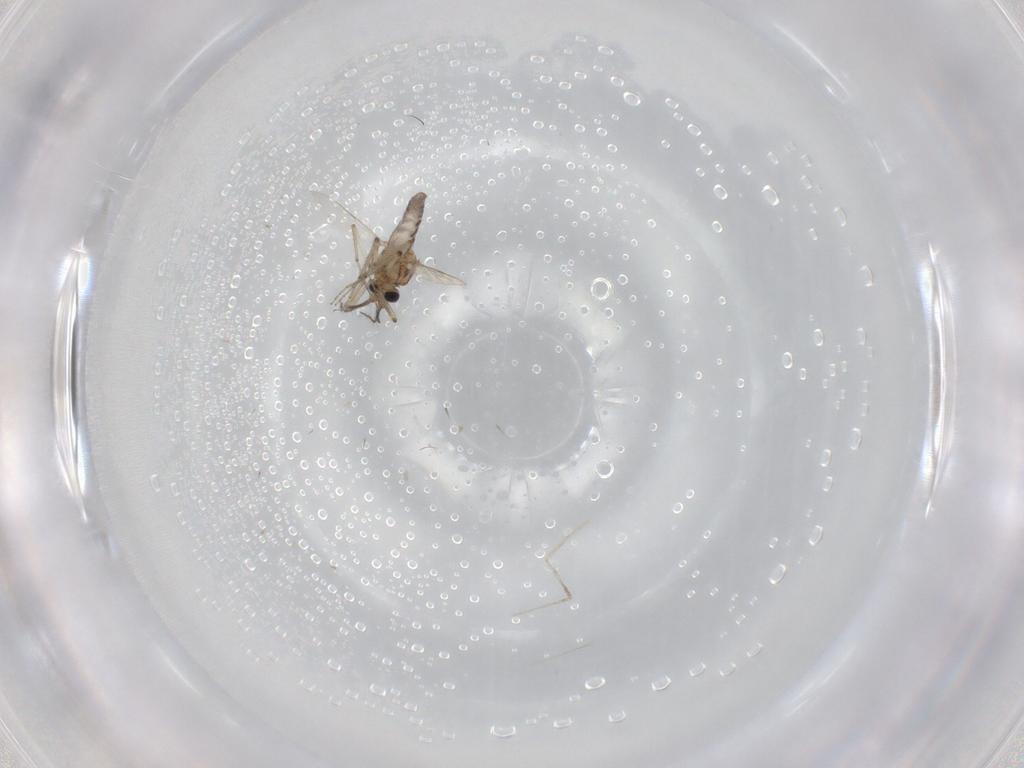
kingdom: Animalia
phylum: Arthropoda
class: Insecta
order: Diptera
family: Ceratopogonidae
